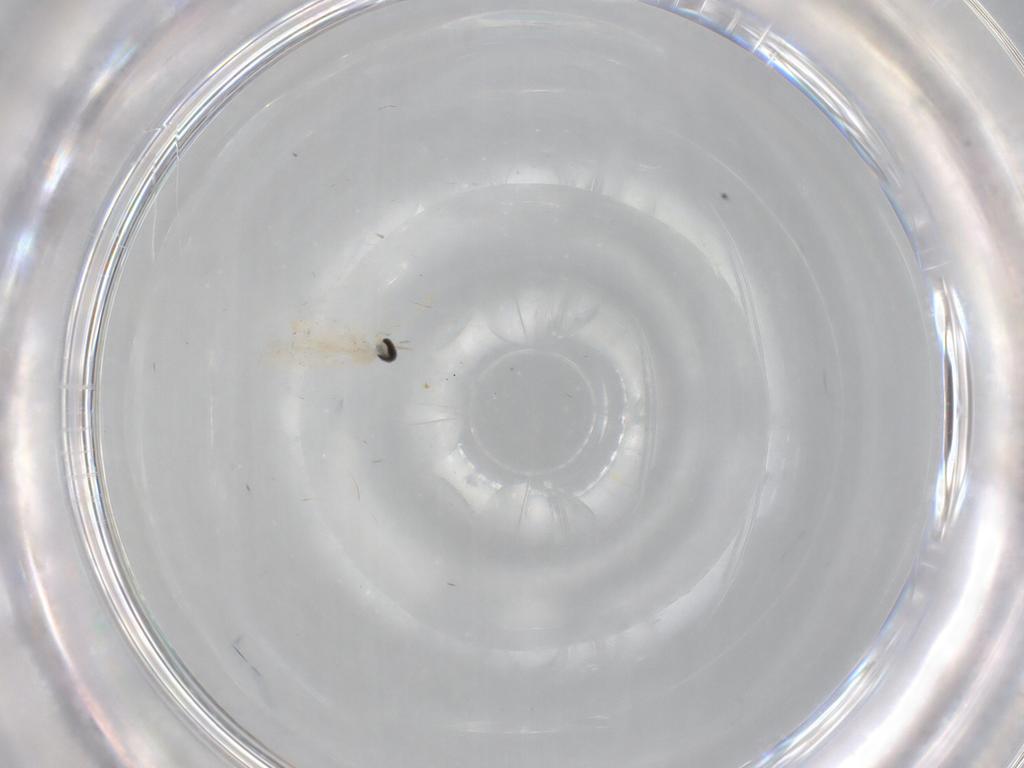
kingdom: Animalia
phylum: Arthropoda
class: Insecta
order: Diptera
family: Cecidomyiidae
